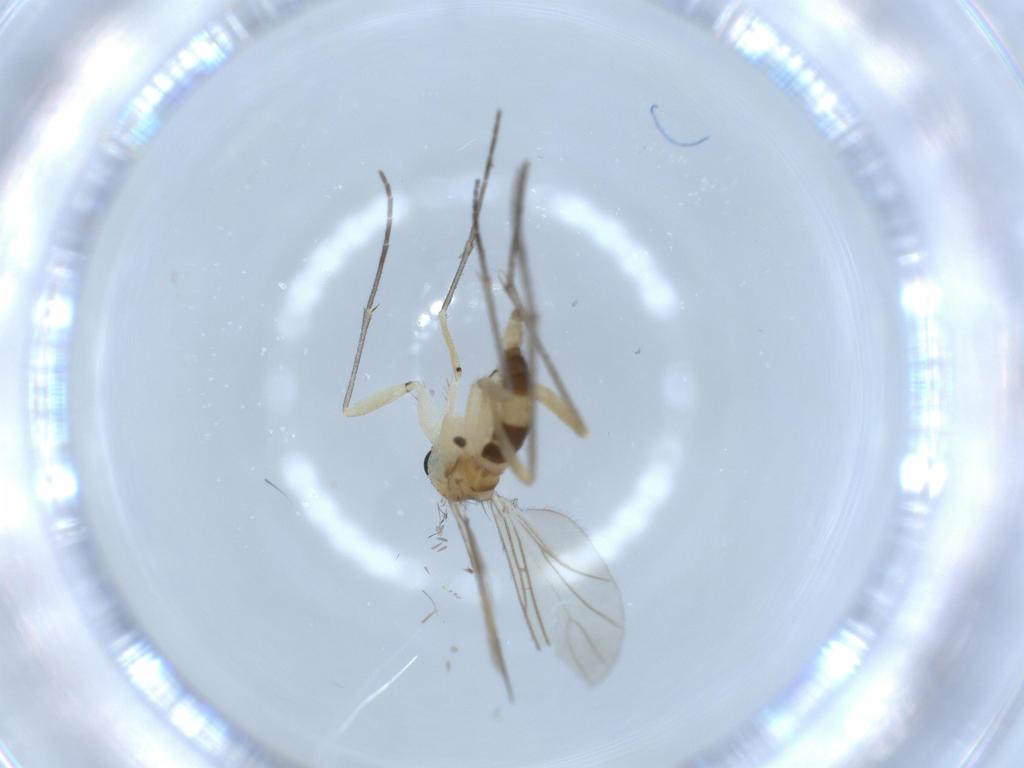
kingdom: Animalia
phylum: Arthropoda
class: Insecta
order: Diptera
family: Sciaridae
